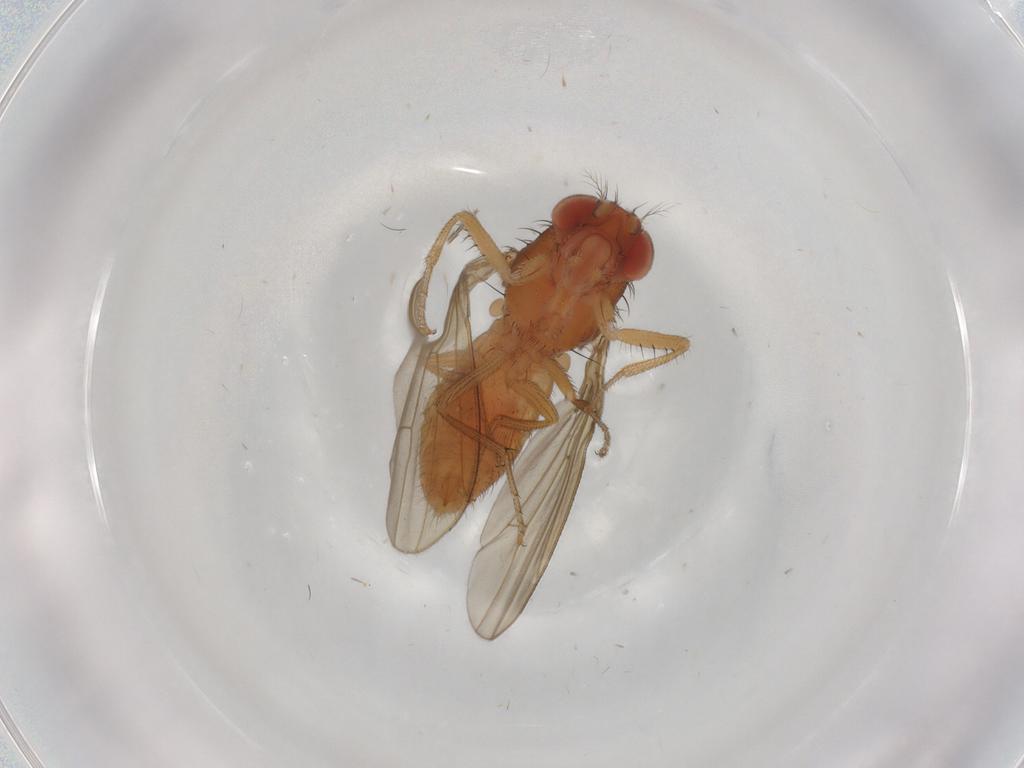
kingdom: Animalia
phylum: Arthropoda
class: Insecta
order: Diptera
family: Drosophilidae
